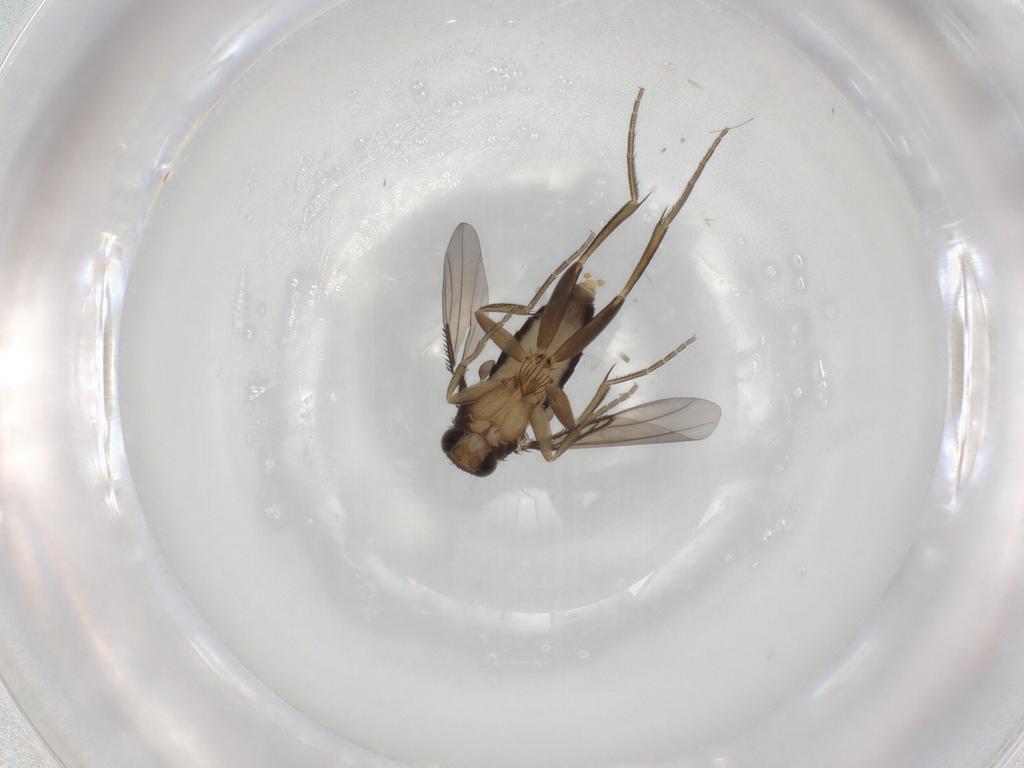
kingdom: Animalia
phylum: Arthropoda
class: Insecta
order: Diptera
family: Phoridae
